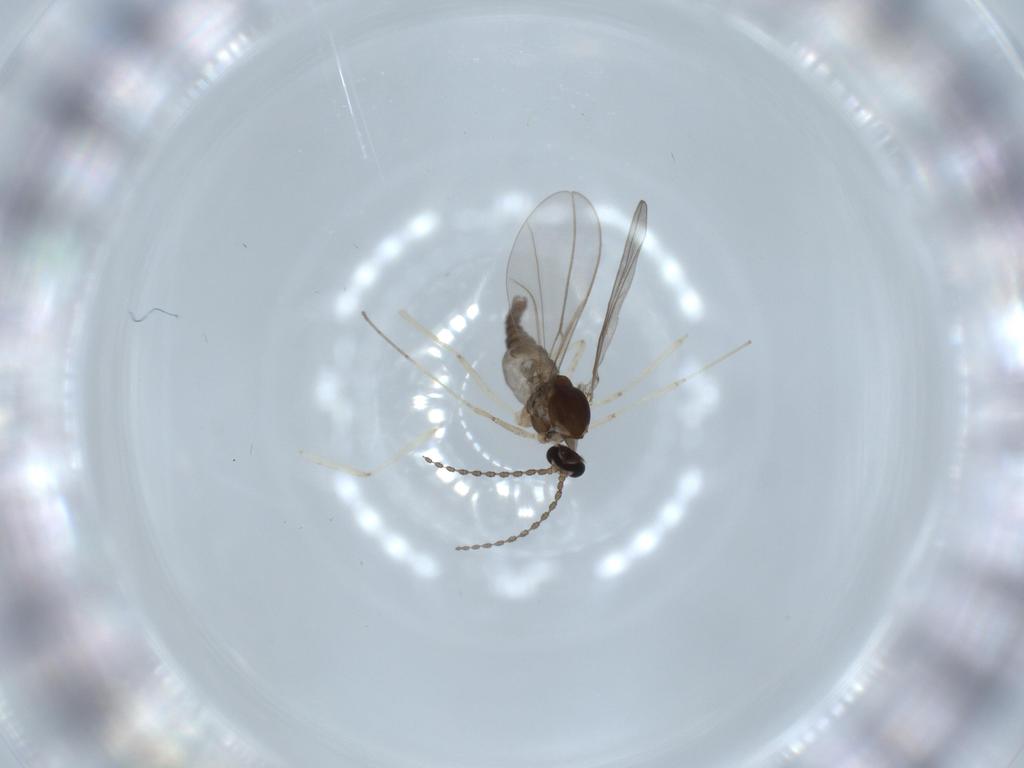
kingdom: Animalia
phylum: Arthropoda
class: Insecta
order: Diptera
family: Cecidomyiidae
